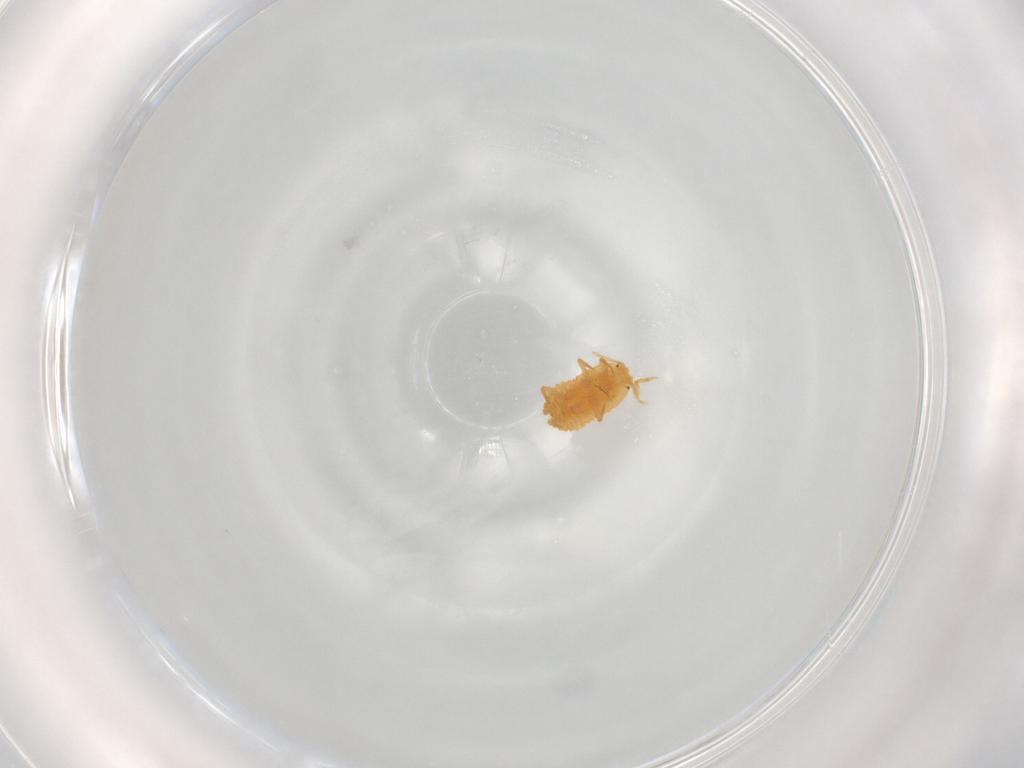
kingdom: Animalia
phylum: Arthropoda
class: Insecta
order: Hemiptera
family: Pseudococcidae
